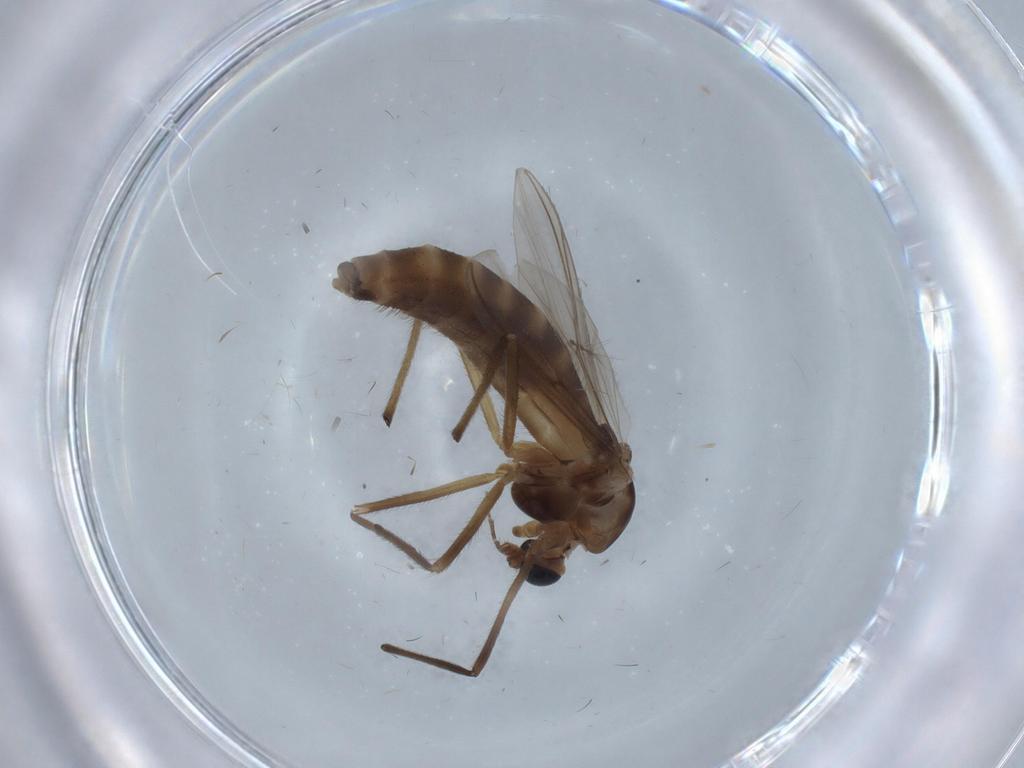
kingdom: Animalia
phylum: Arthropoda
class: Insecta
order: Diptera
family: Chironomidae
